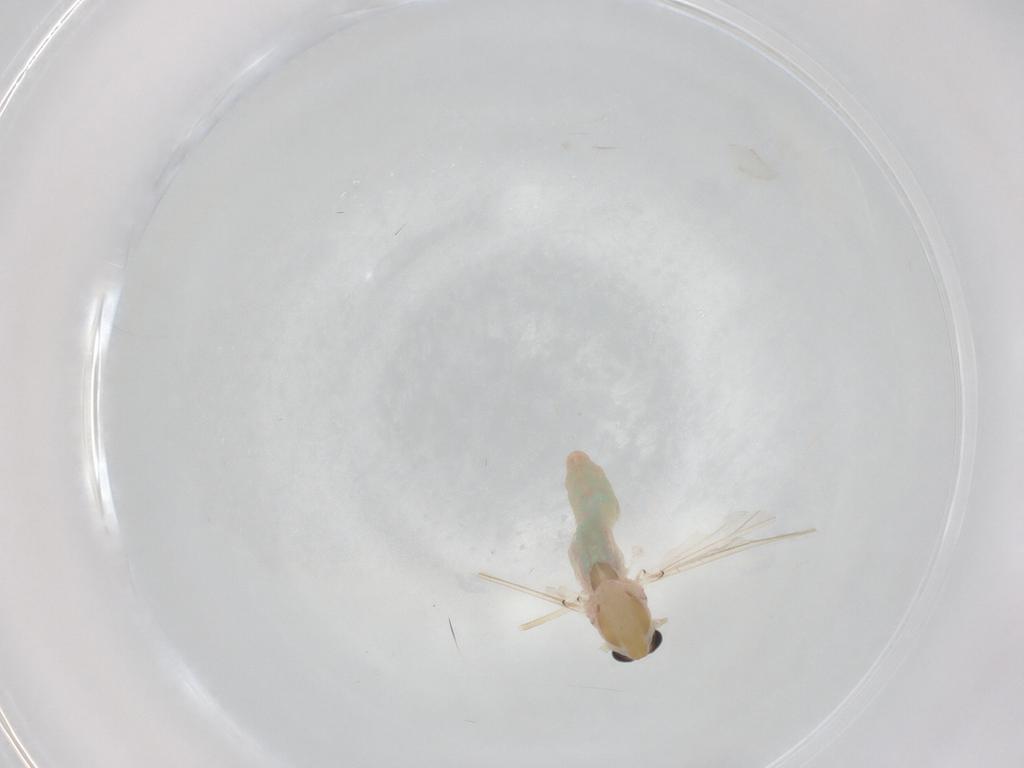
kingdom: Animalia
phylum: Arthropoda
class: Insecta
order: Diptera
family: Chironomidae
